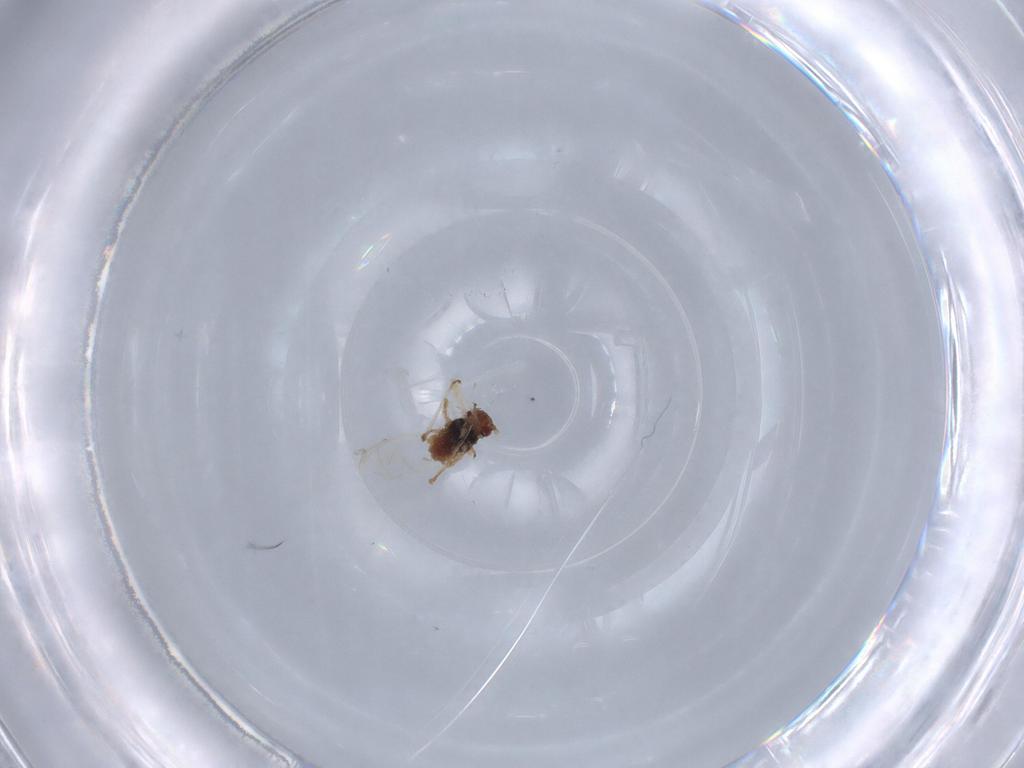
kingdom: Animalia
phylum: Arthropoda
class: Insecta
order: Hemiptera
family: Aphididae
